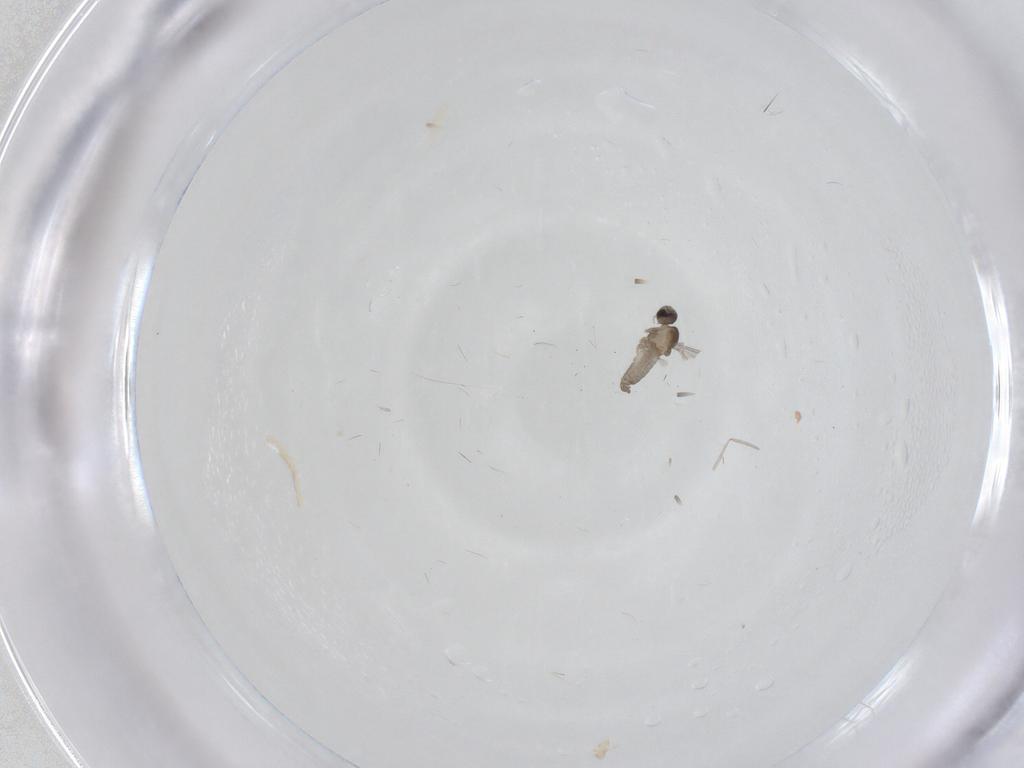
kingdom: Animalia
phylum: Arthropoda
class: Insecta
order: Diptera
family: Cecidomyiidae
